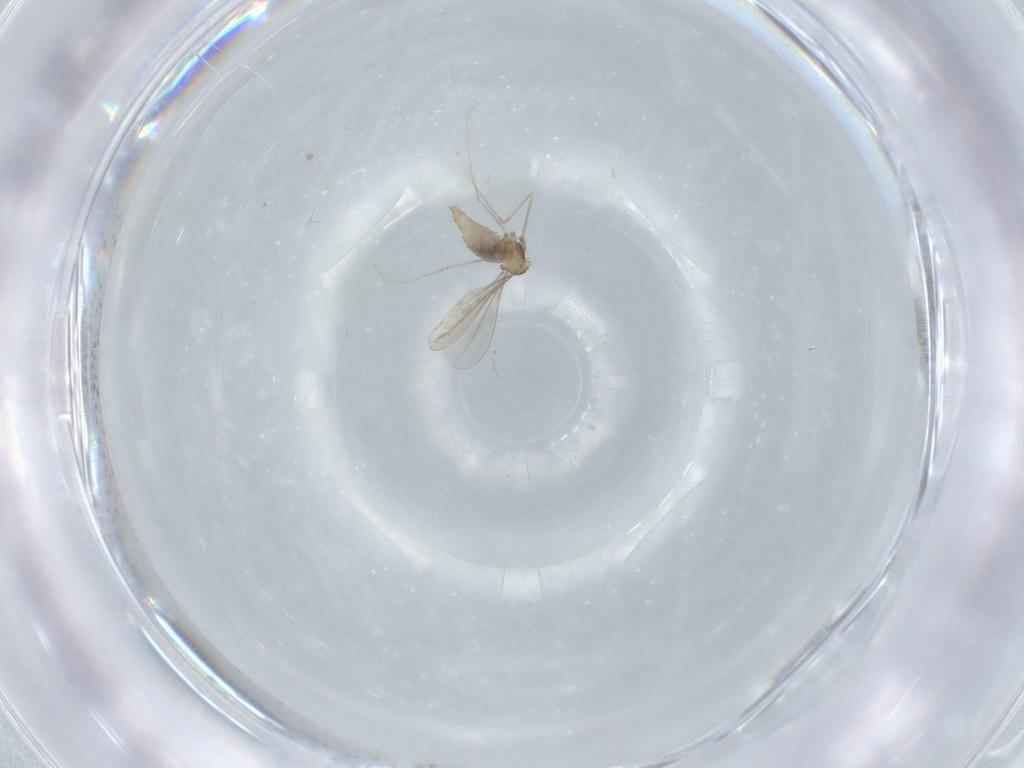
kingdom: Animalia
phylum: Arthropoda
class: Insecta
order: Diptera
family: Cecidomyiidae
